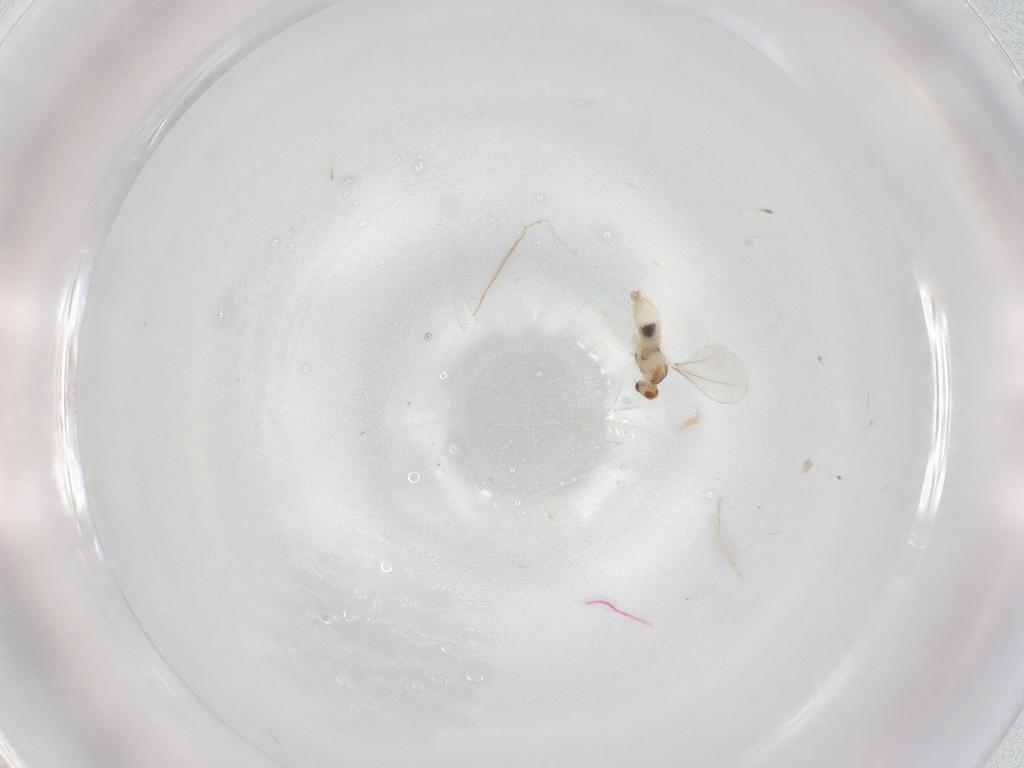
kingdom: Animalia
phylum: Arthropoda
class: Insecta
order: Diptera
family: Cecidomyiidae
